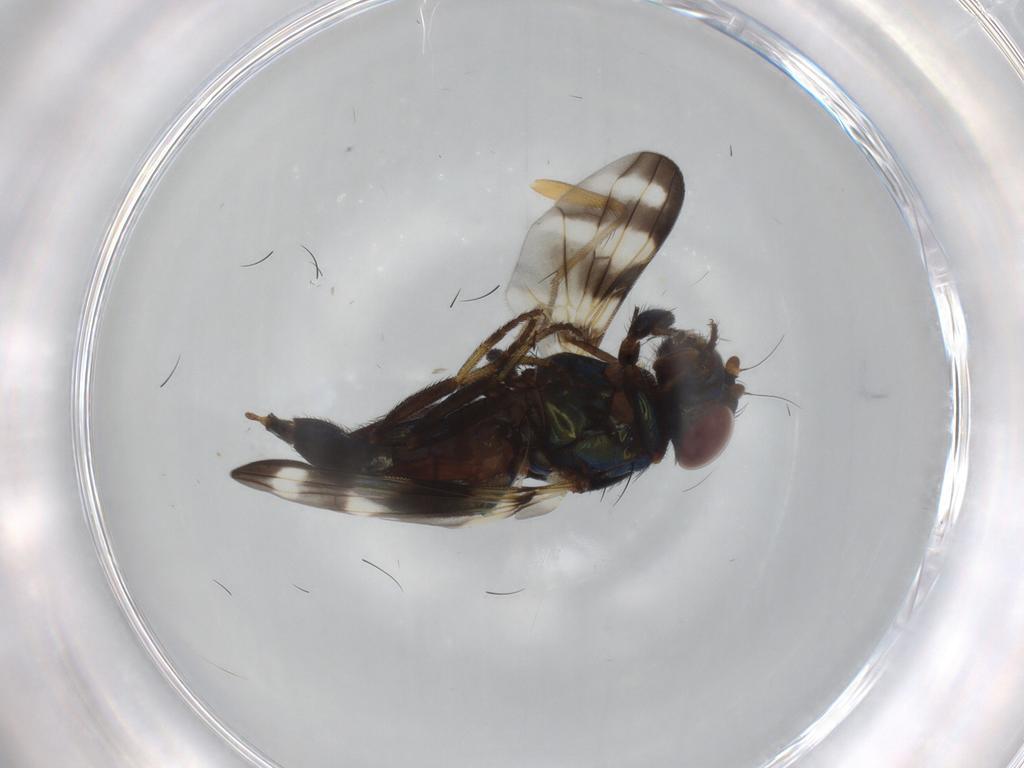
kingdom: Animalia
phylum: Arthropoda
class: Insecta
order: Diptera
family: Ulidiidae
